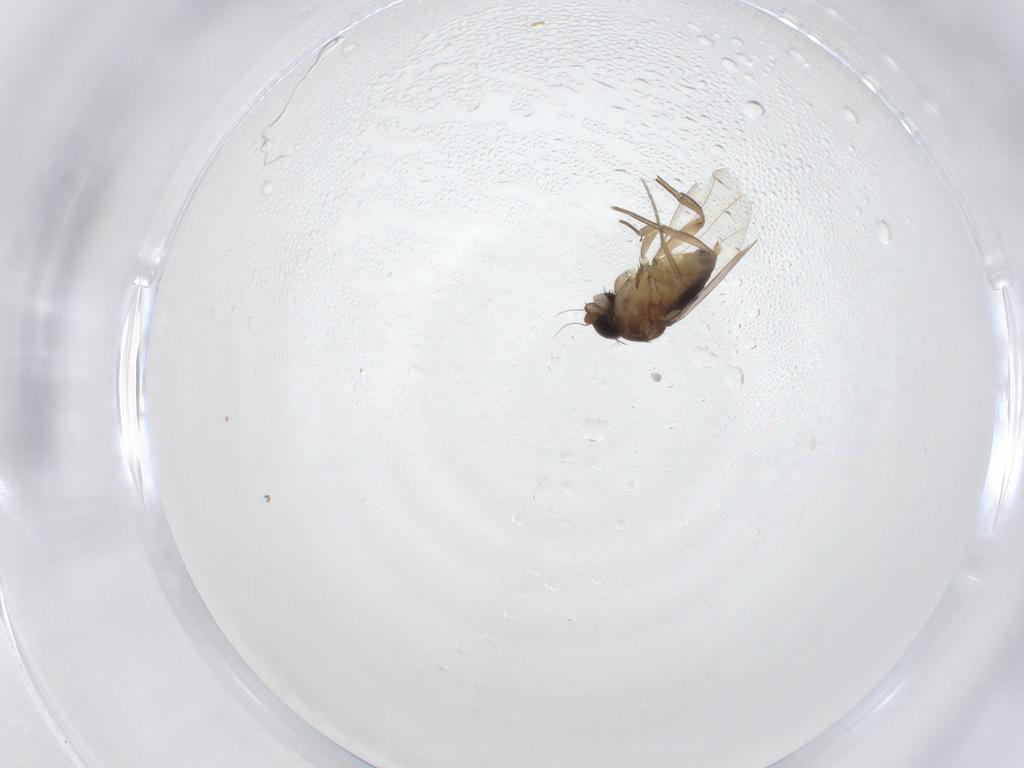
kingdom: Animalia
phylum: Arthropoda
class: Insecta
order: Diptera
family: Phoridae
